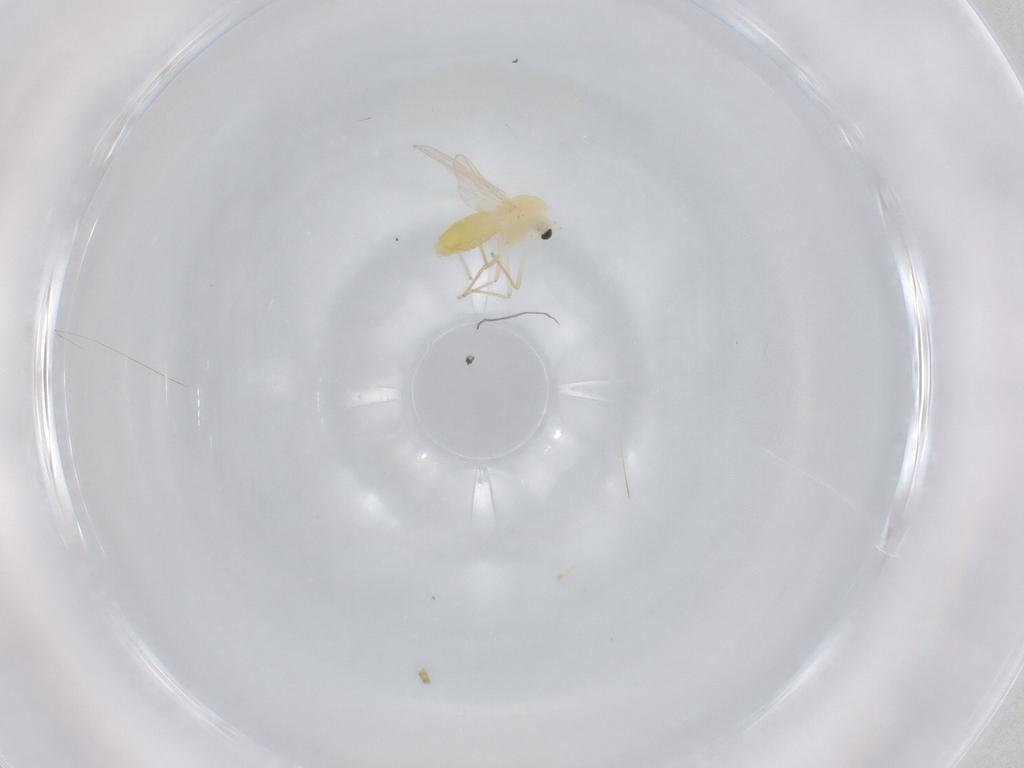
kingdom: Animalia
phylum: Arthropoda
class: Insecta
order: Diptera
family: Chironomidae
